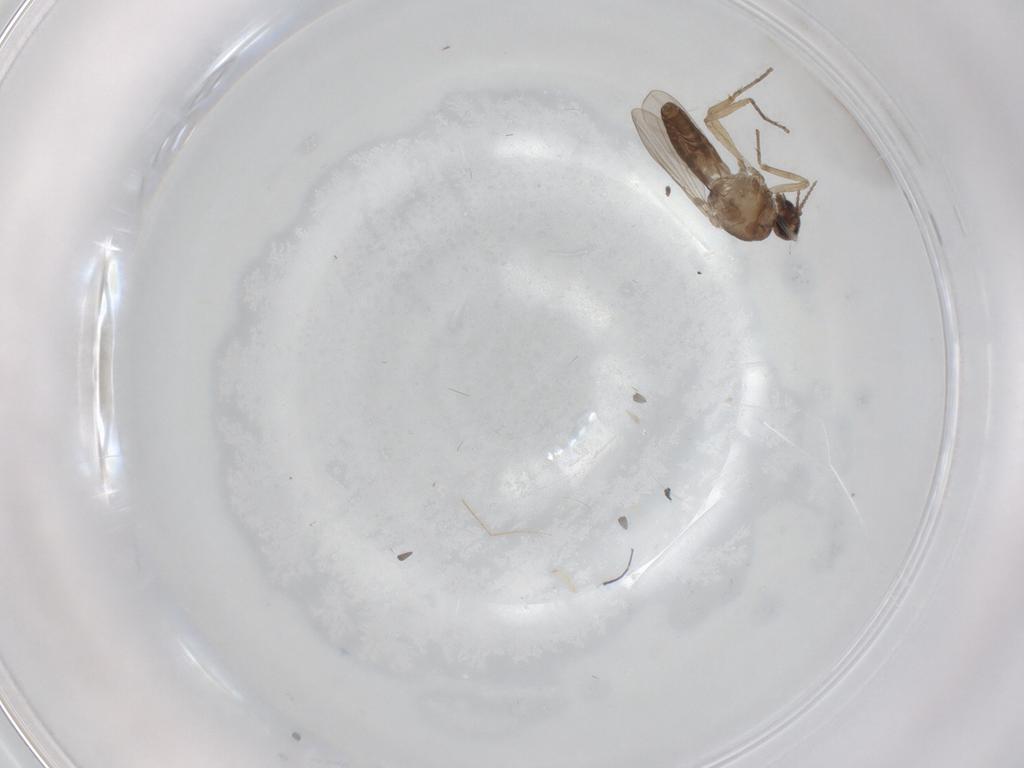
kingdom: Animalia
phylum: Arthropoda
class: Insecta
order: Diptera
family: Ceratopogonidae
